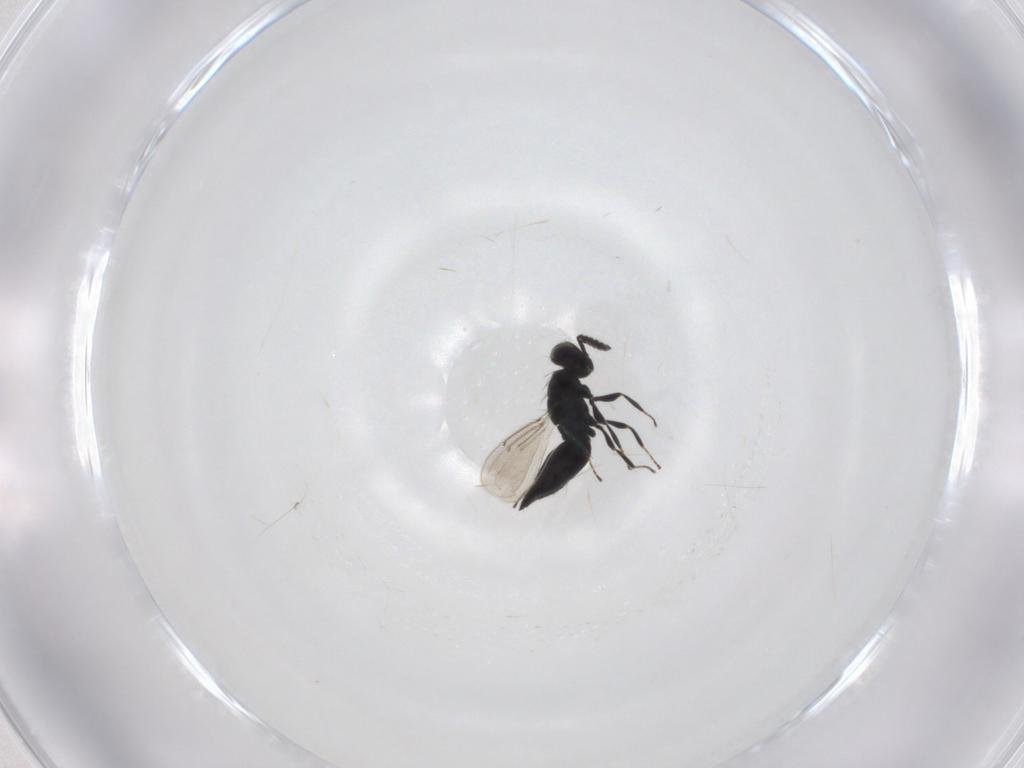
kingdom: Animalia
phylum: Arthropoda
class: Insecta
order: Hymenoptera
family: Eulophidae
